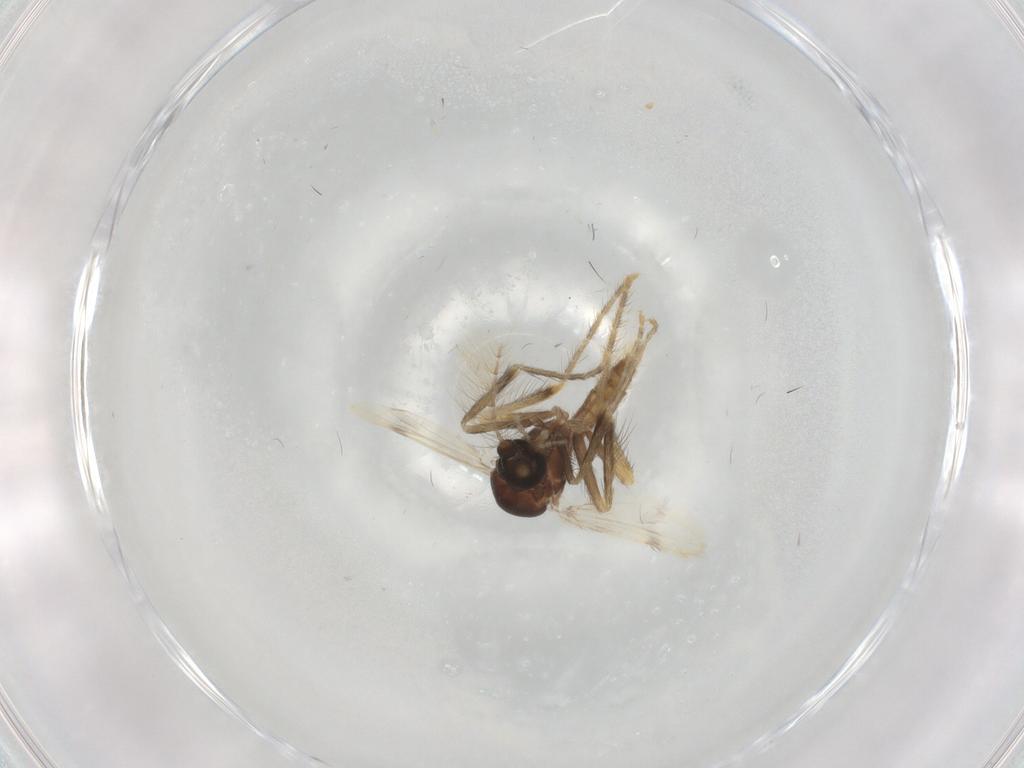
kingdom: Animalia
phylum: Arthropoda
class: Insecta
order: Diptera
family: Corethrellidae
